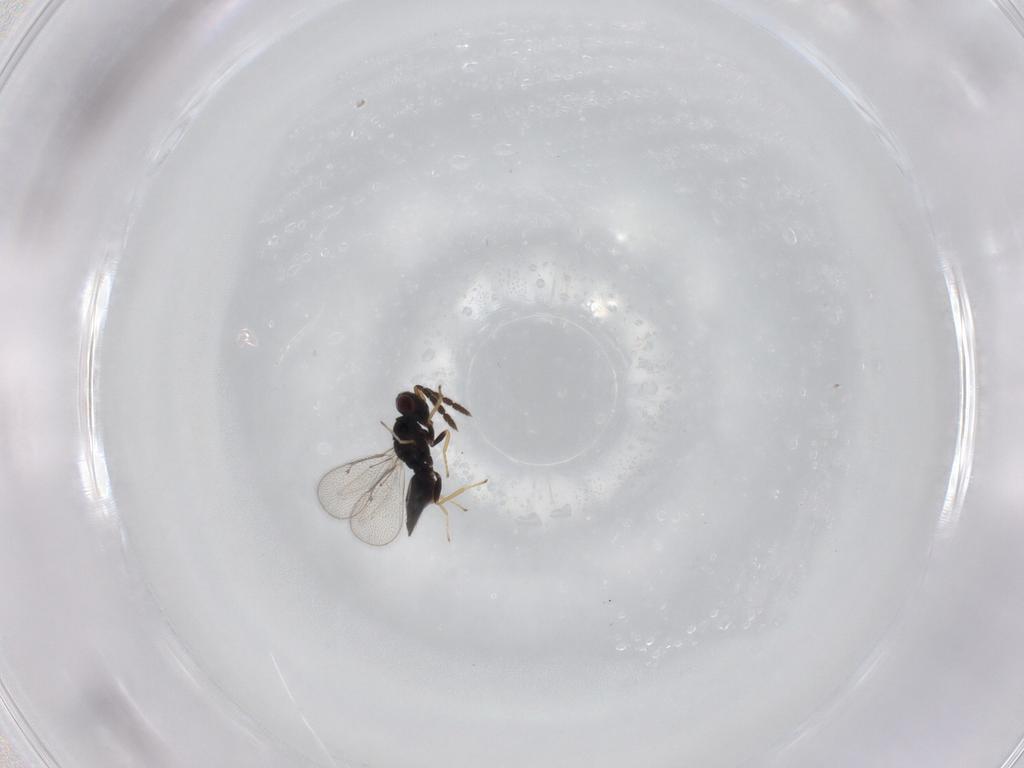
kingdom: Animalia
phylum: Arthropoda
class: Insecta
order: Hymenoptera
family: Eulophidae
